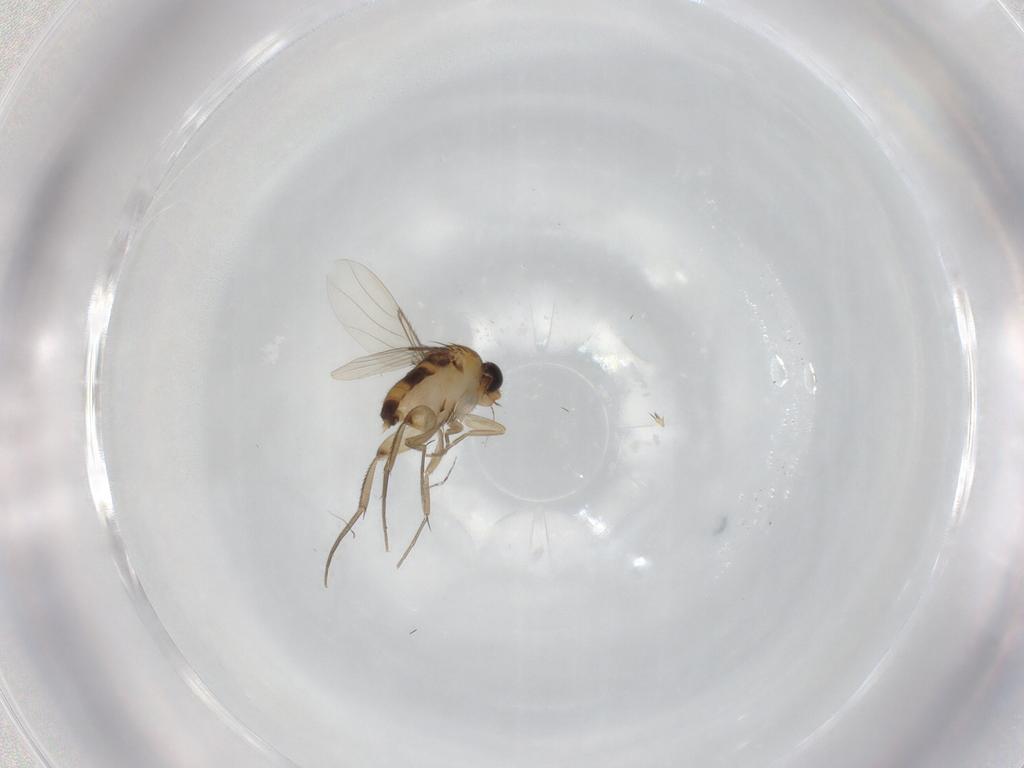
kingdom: Animalia
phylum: Arthropoda
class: Insecta
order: Diptera
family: Phoridae
